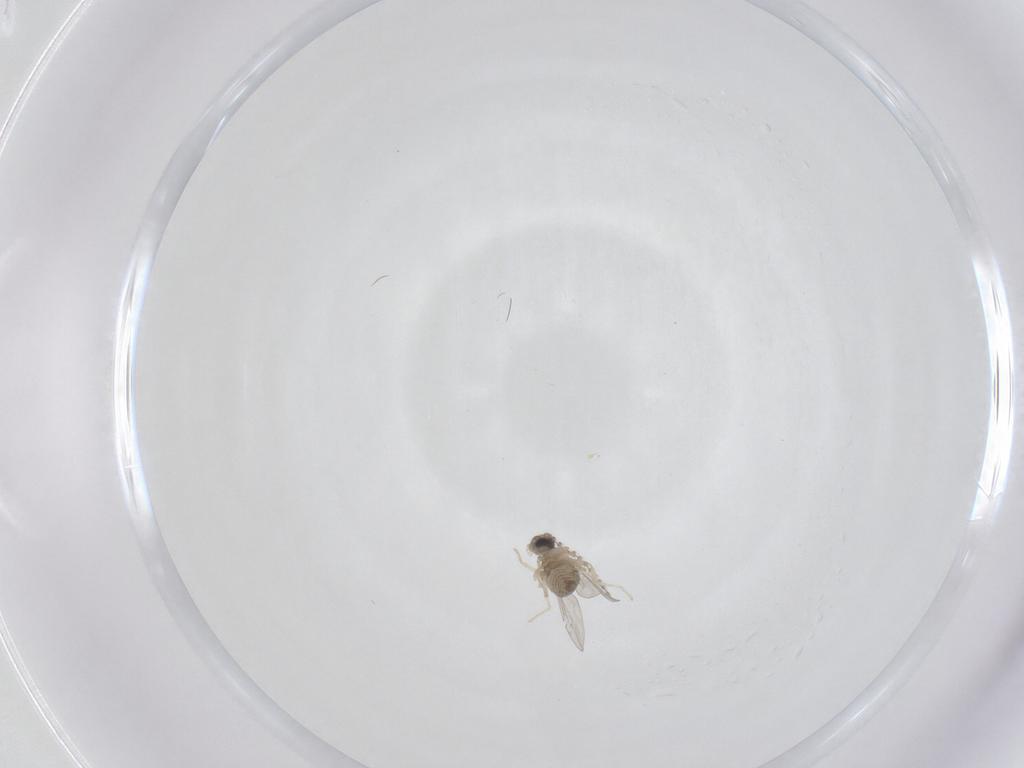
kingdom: Animalia
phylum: Arthropoda
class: Insecta
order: Diptera
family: Cecidomyiidae
